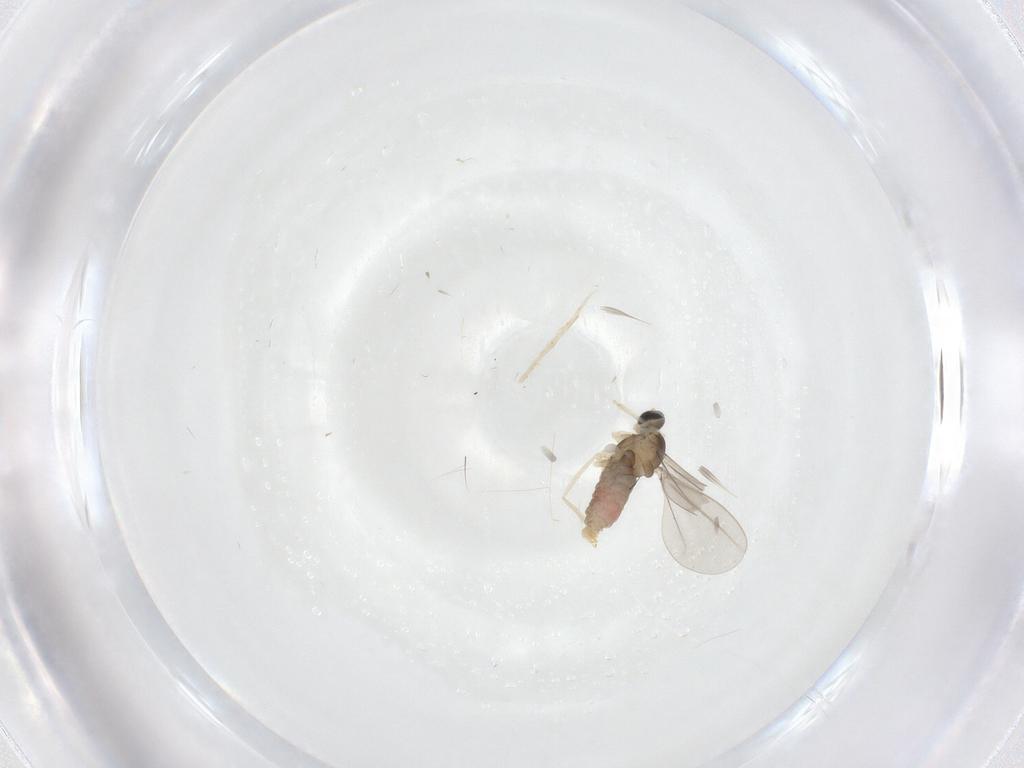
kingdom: Animalia
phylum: Arthropoda
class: Insecta
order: Diptera
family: Cecidomyiidae
